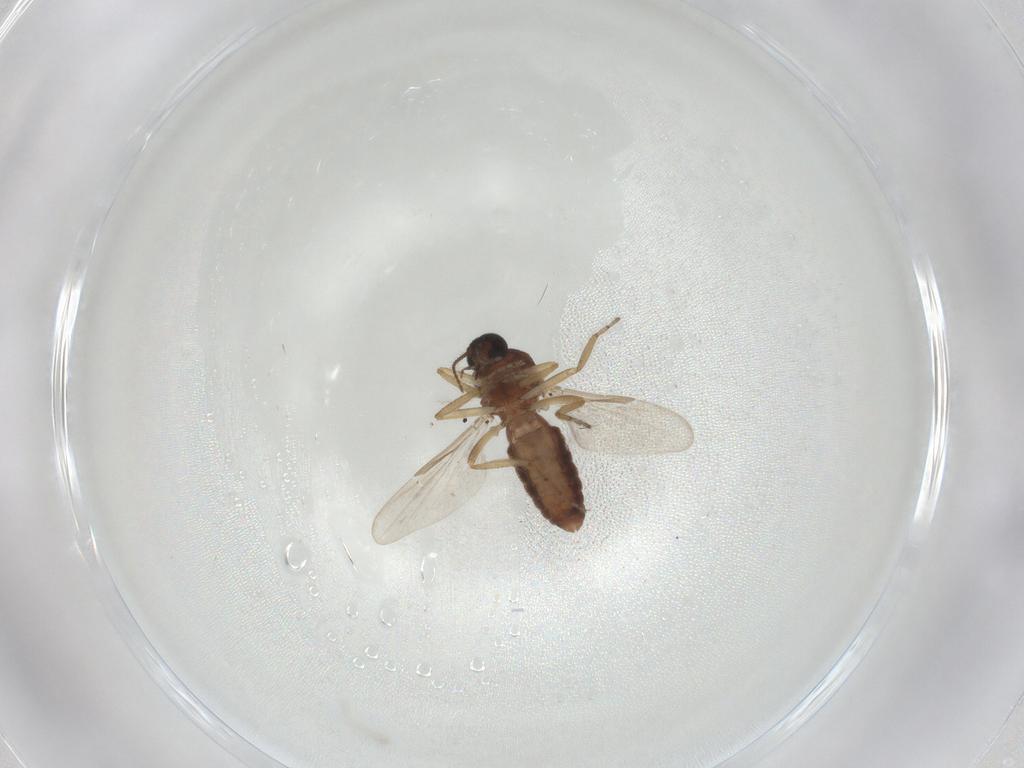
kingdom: Animalia
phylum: Arthropoda
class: Insecta
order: Diptera
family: Ceratopogonidae
